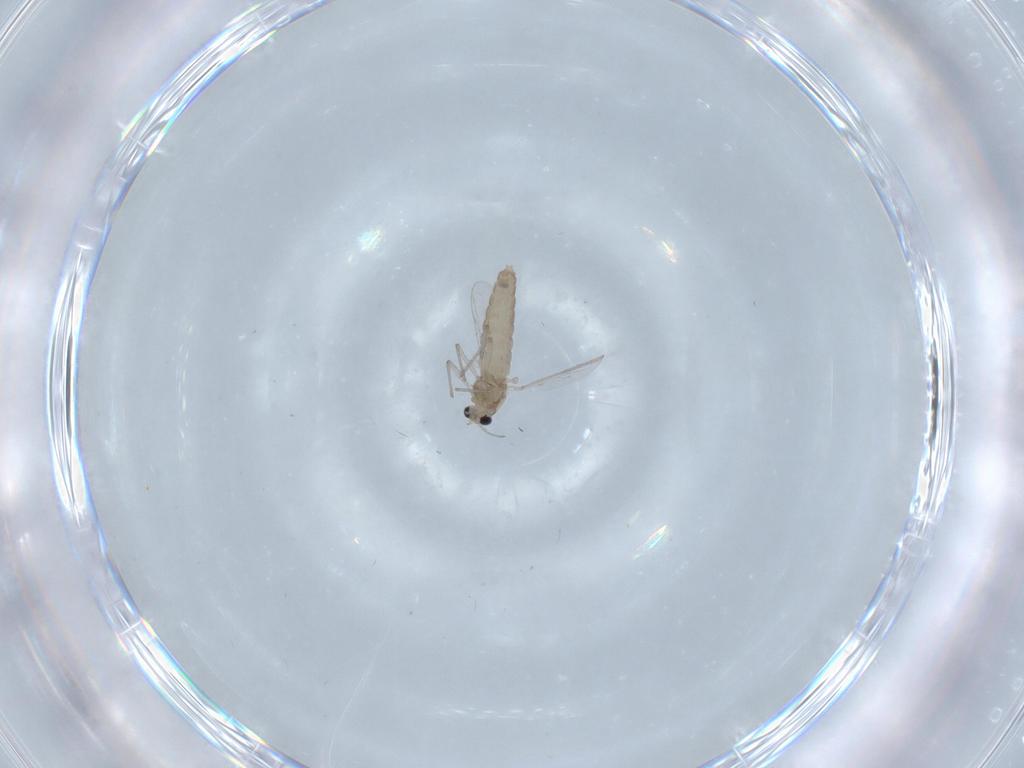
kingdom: Animalia
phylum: Arthropoda
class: Insecta
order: Diptera
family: Chironomidae
